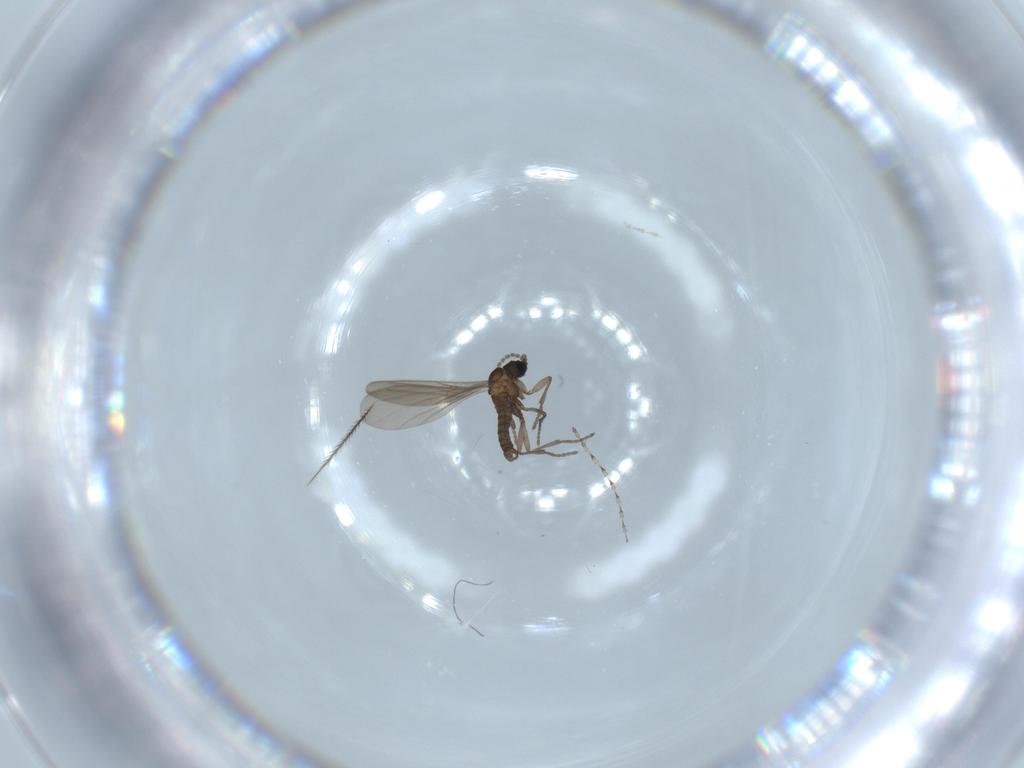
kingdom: Animalia
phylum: Arthropoda
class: Insecta
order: Diptera
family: Cecidomyiidae
